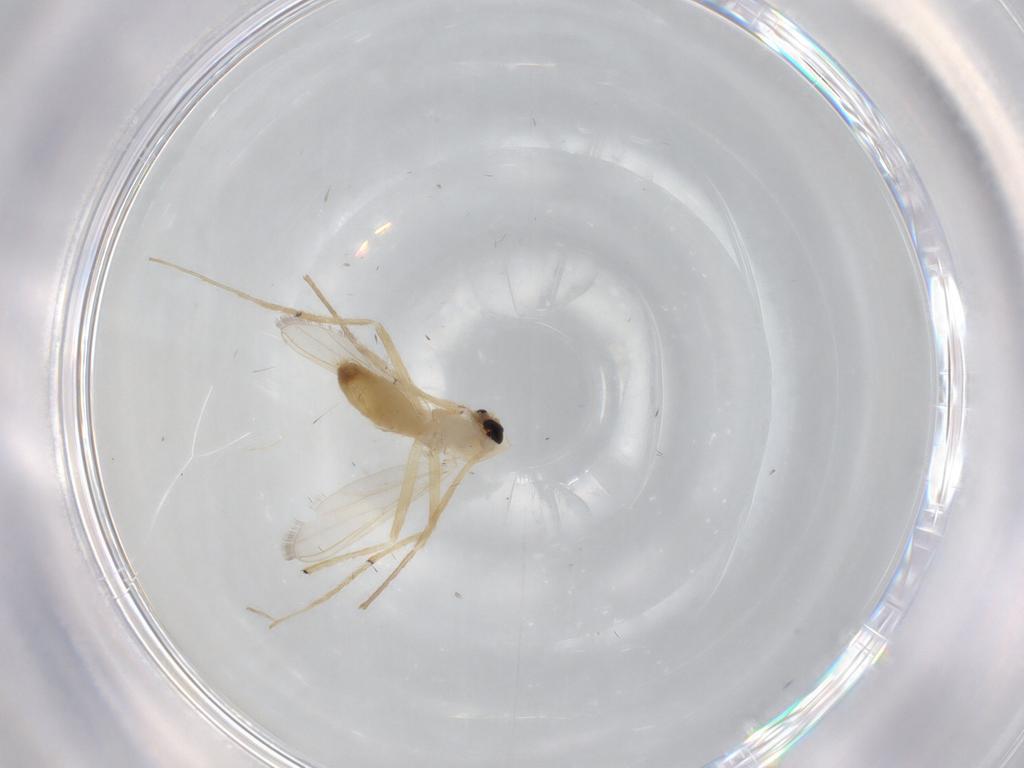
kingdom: Animalia
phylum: Arthropoda
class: Insecta
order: Diptera
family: Chironomidae
